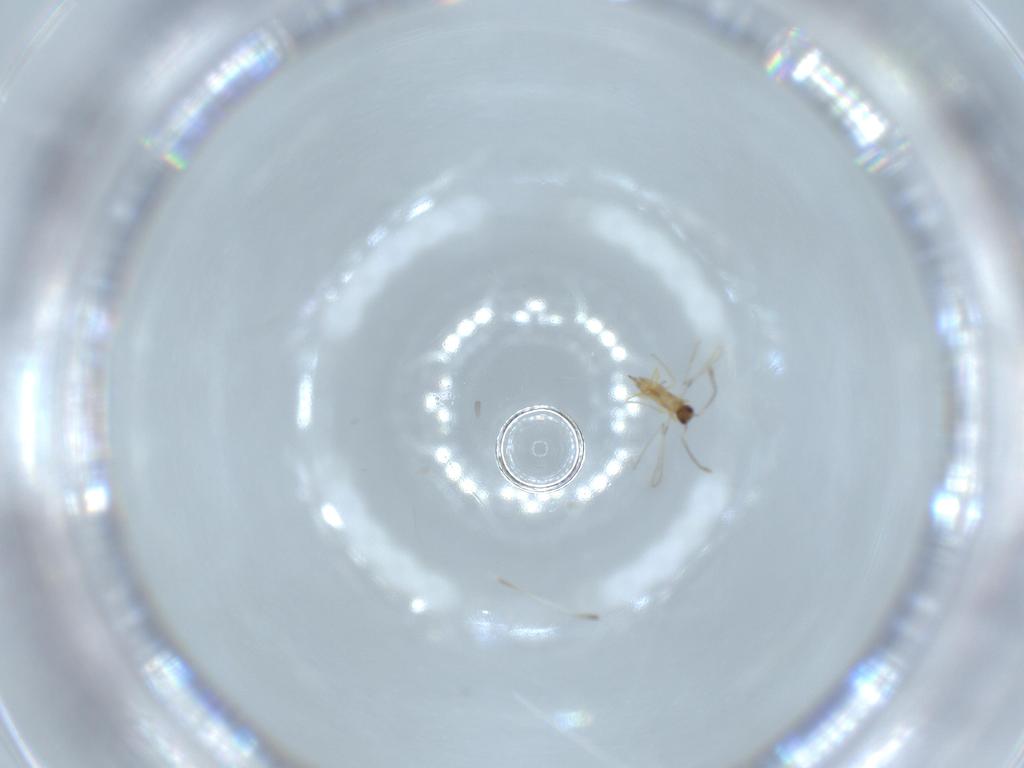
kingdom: Animalia
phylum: Arthropoda
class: Insecta
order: Hymenoptera
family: Mymaridae
